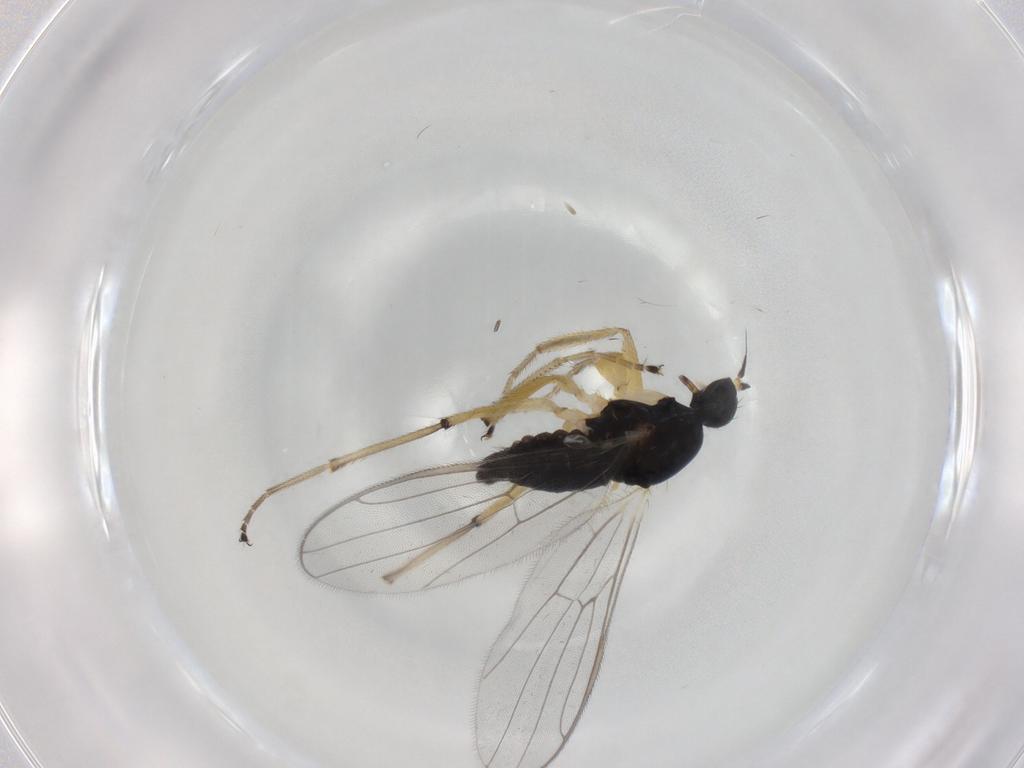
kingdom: Animalia
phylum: Arthropoda
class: Insecta
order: Diptera
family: Hybotidae
